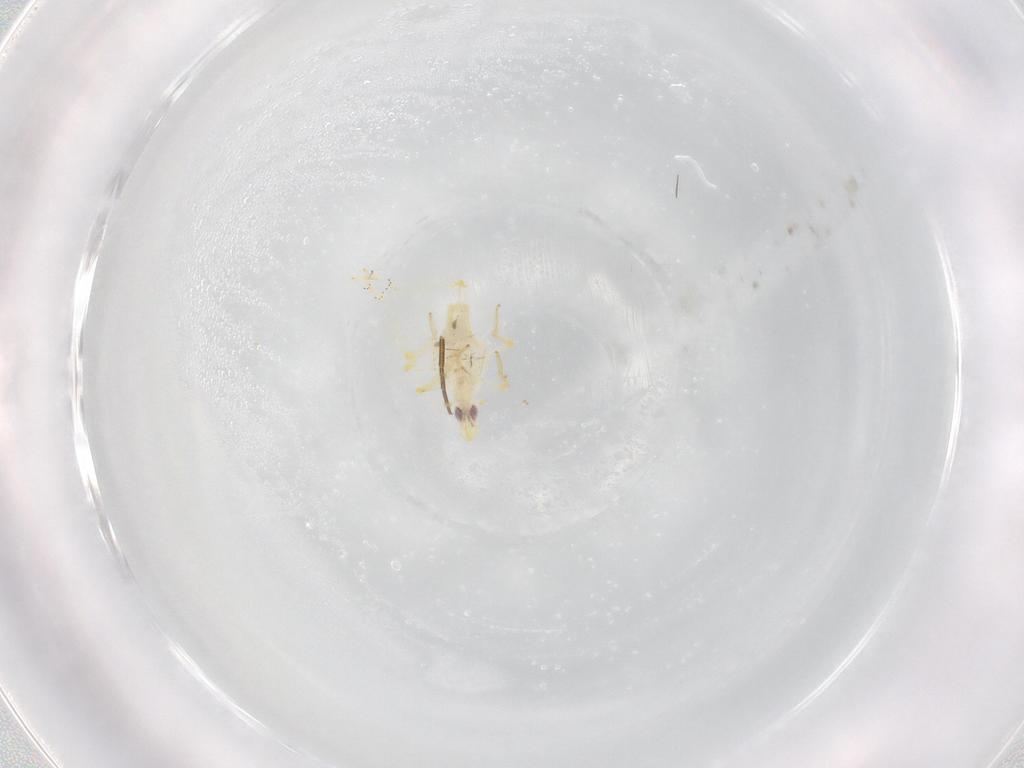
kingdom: Animalia
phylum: Arthropoda
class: Insecta
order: Hemiptera
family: Tropiduchidae
